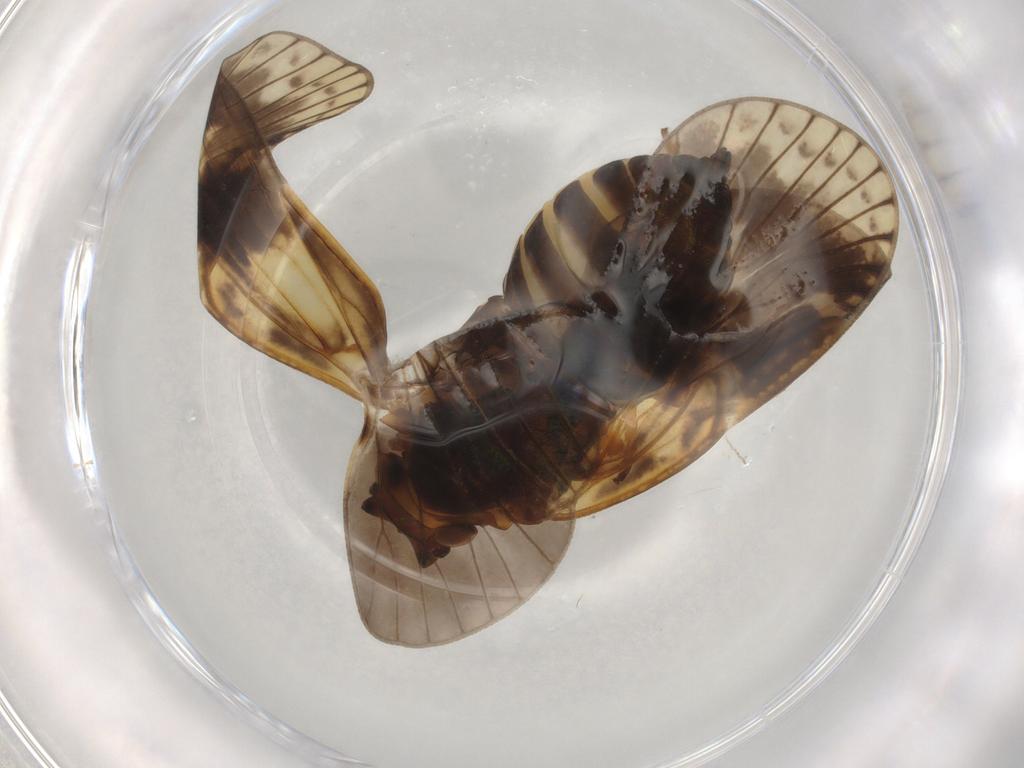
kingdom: Animalia
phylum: Arthropoda
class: Insecta
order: Hemiptera
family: Cixiidae
